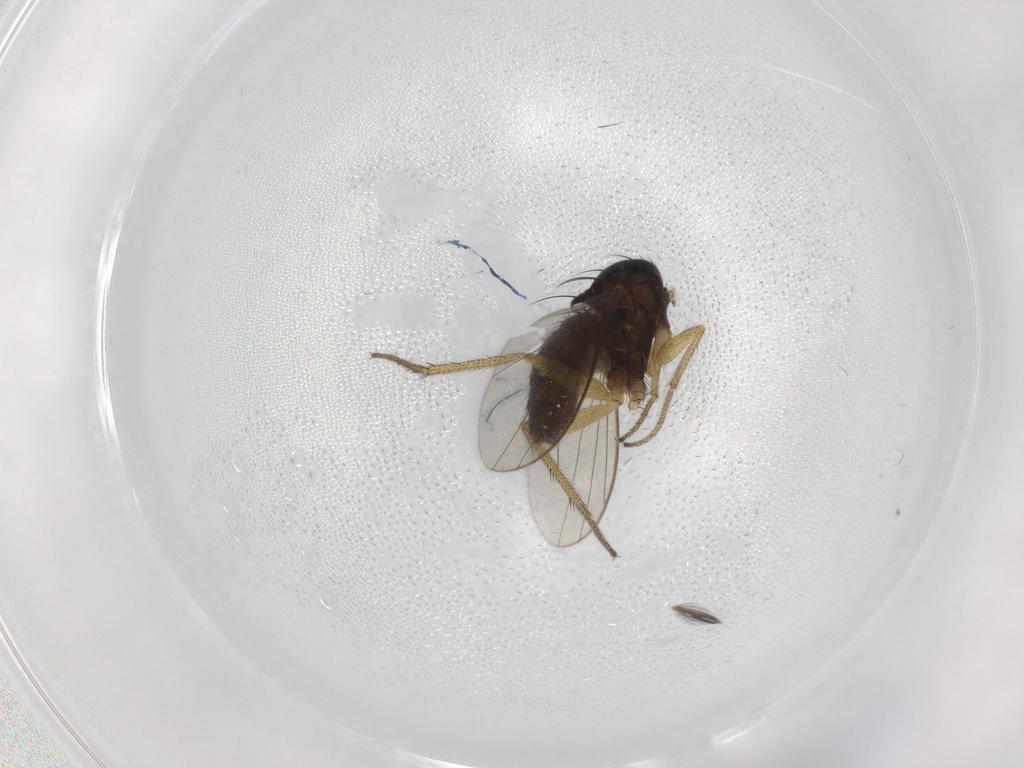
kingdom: Animalia
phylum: Arthropoda
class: Insecta
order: Diptera
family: Ceratopogonidae
